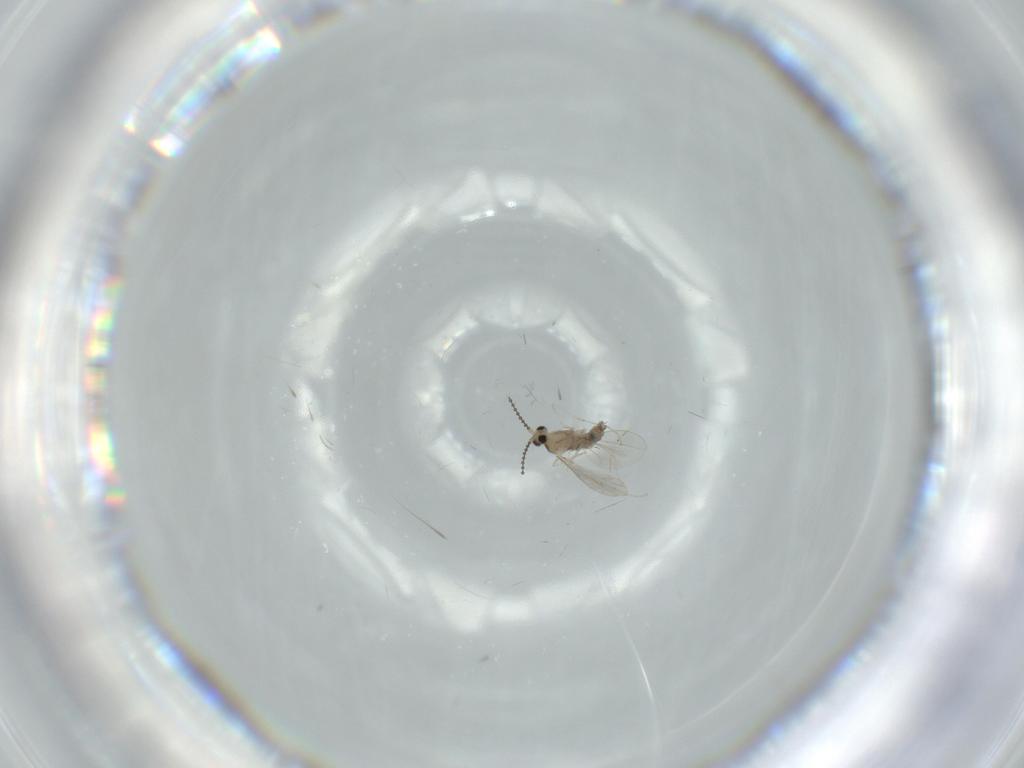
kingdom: Animalia
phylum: Arthropoda
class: Insecta
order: Diptera
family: Cecidomyiidae
